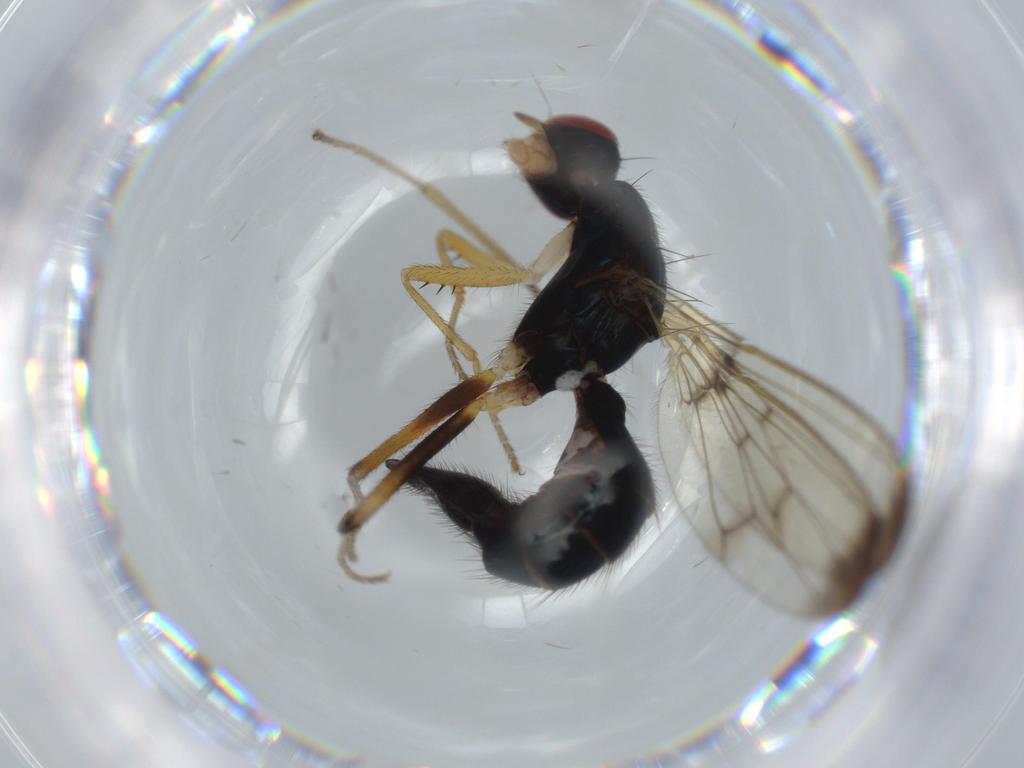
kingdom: Animalia
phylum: Arthropoda
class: Insecta
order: Diptera
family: Sciaridae
